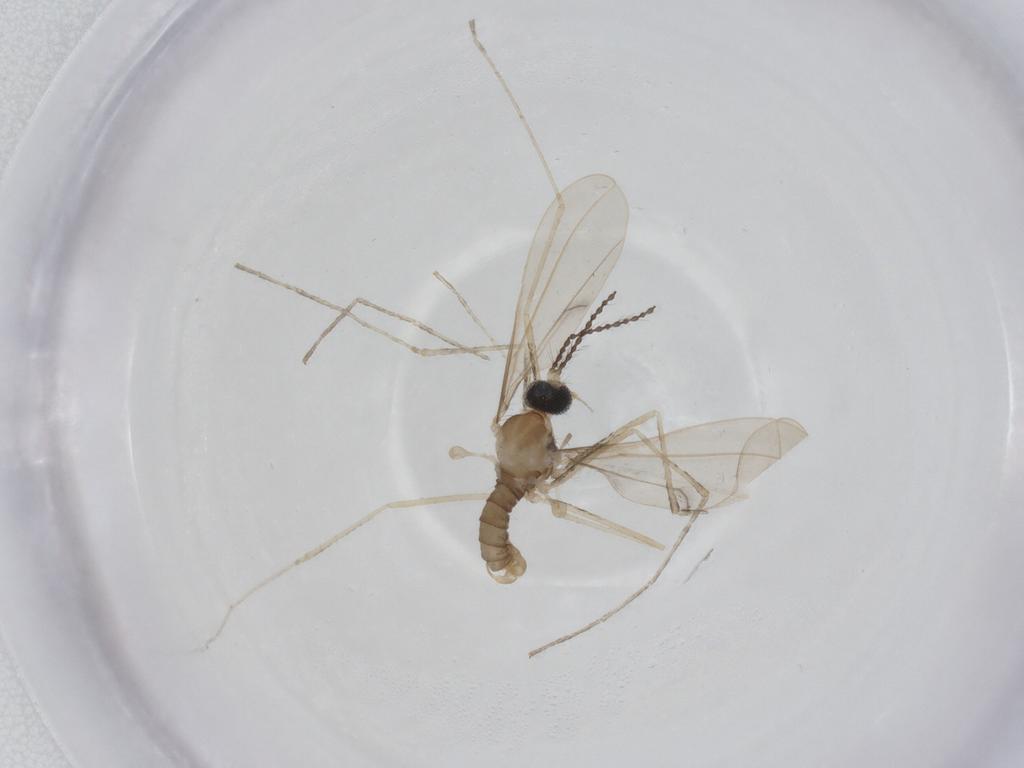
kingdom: Animalia
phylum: Arthropoda
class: Insecta
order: Diptera
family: Cecidomyiidae
